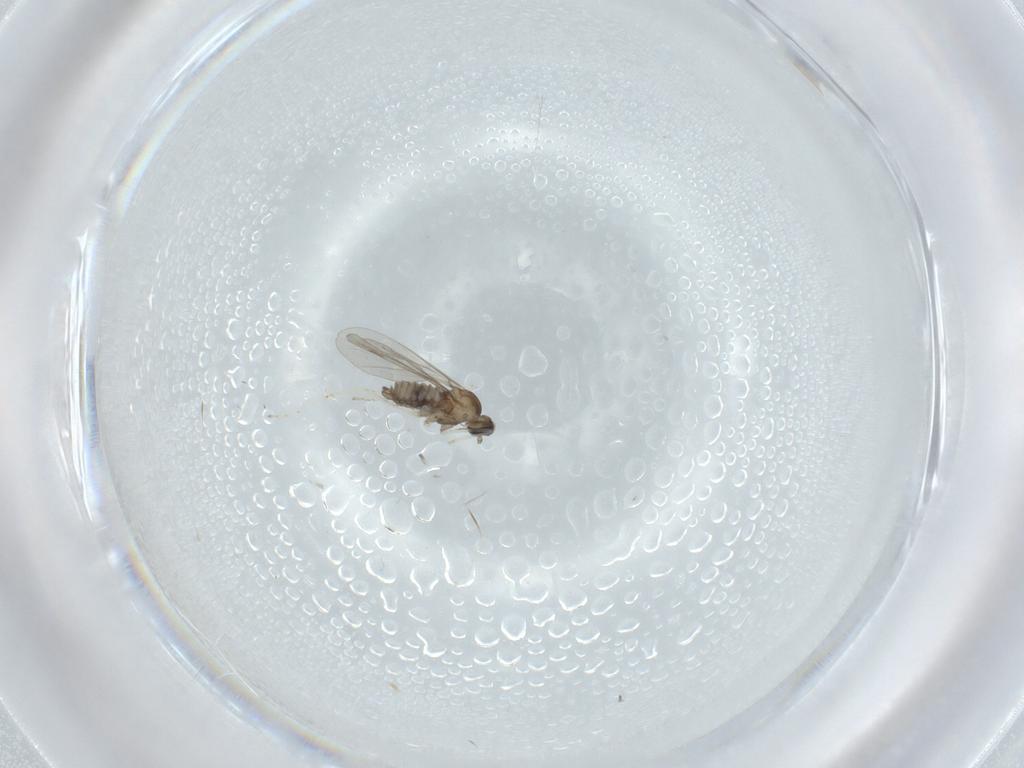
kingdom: Animalia
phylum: Arthropoda
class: Insecta
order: Diptera
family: Cecidomyiidae
